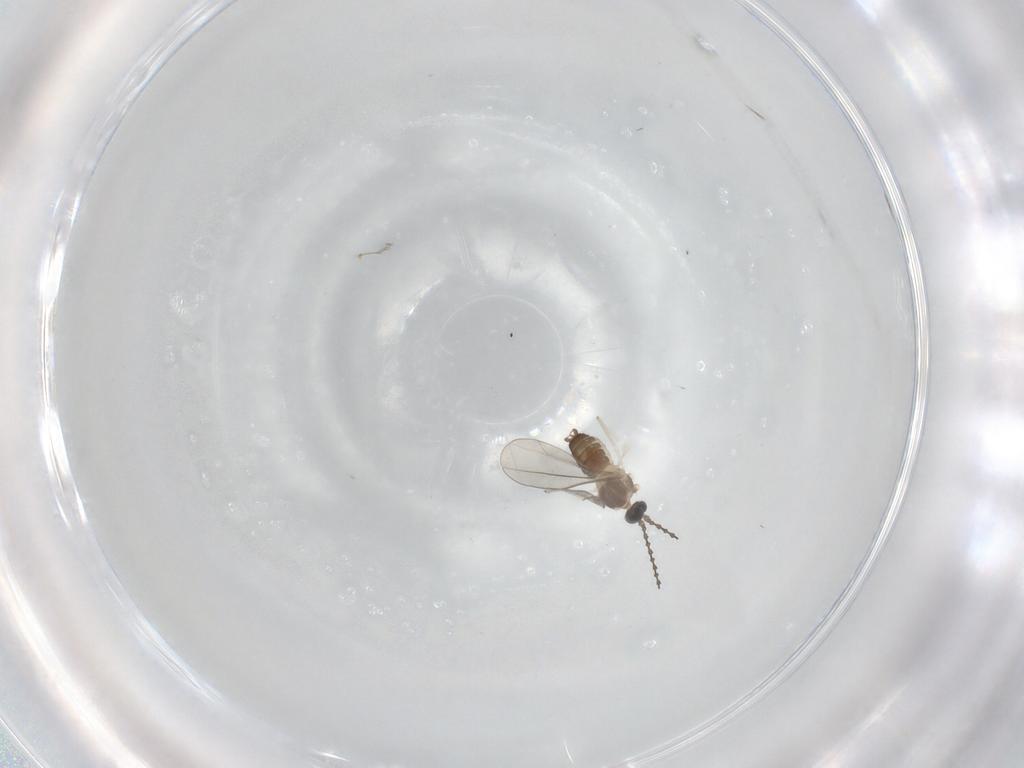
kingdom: Animalia
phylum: Arthropoda
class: Insecta
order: Diptera
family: Cecidomyiidae
